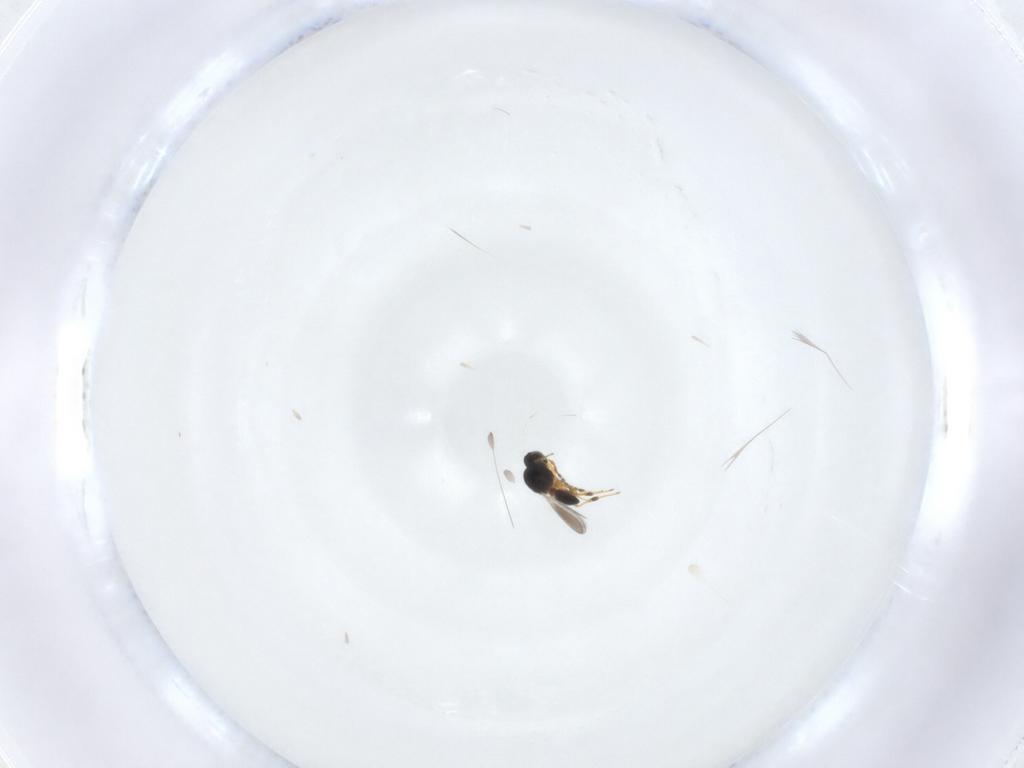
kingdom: Animalia
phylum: Arthropoda
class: Insecta
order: Hymenoptera
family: Platygastridae
